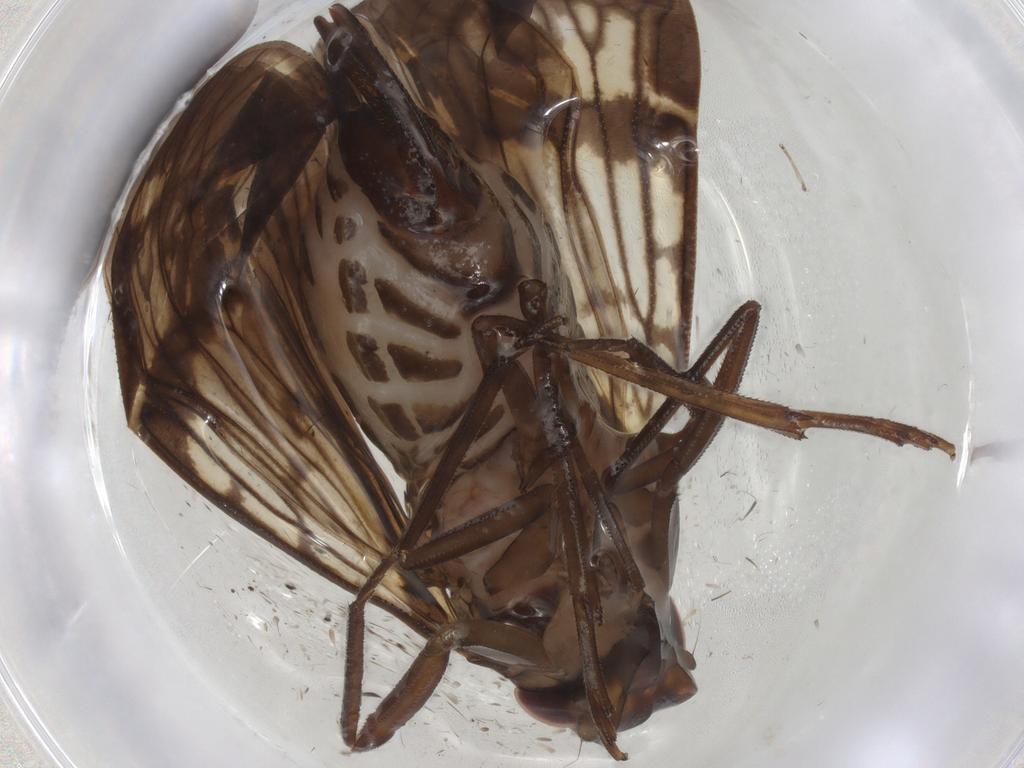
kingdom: Animalia
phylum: Arthropoda
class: Insecta
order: Hemiptera
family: Cixiidae
